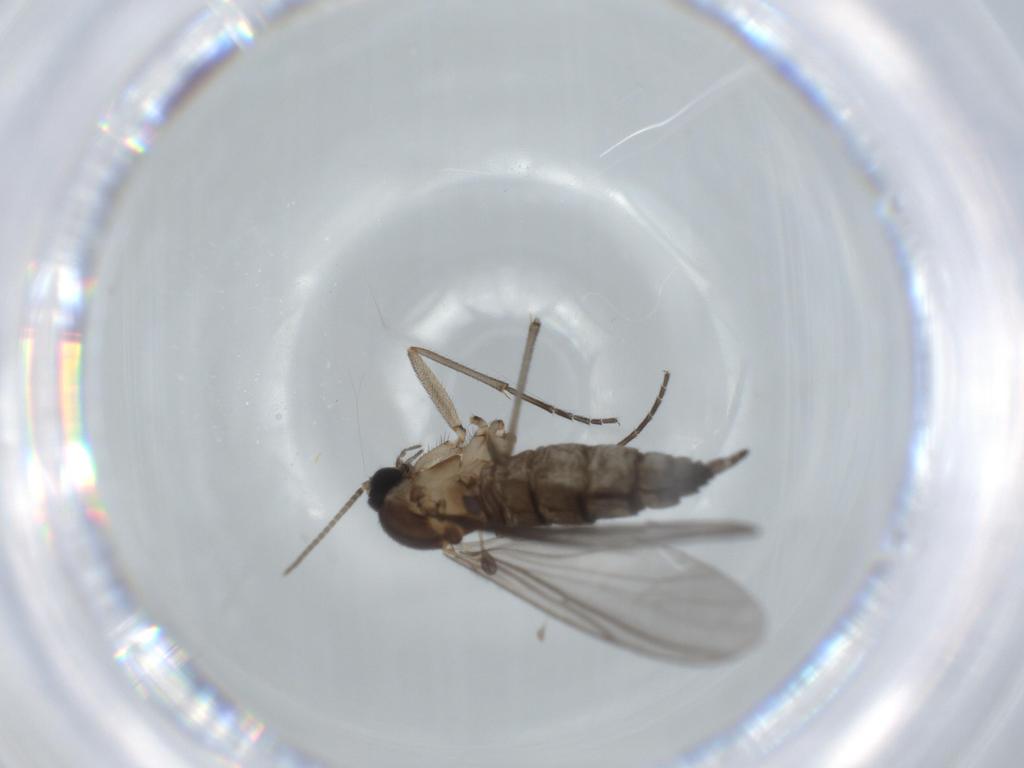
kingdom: Animalia
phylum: Arthropoda
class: Insecta
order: Diptera
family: Sciaridae
